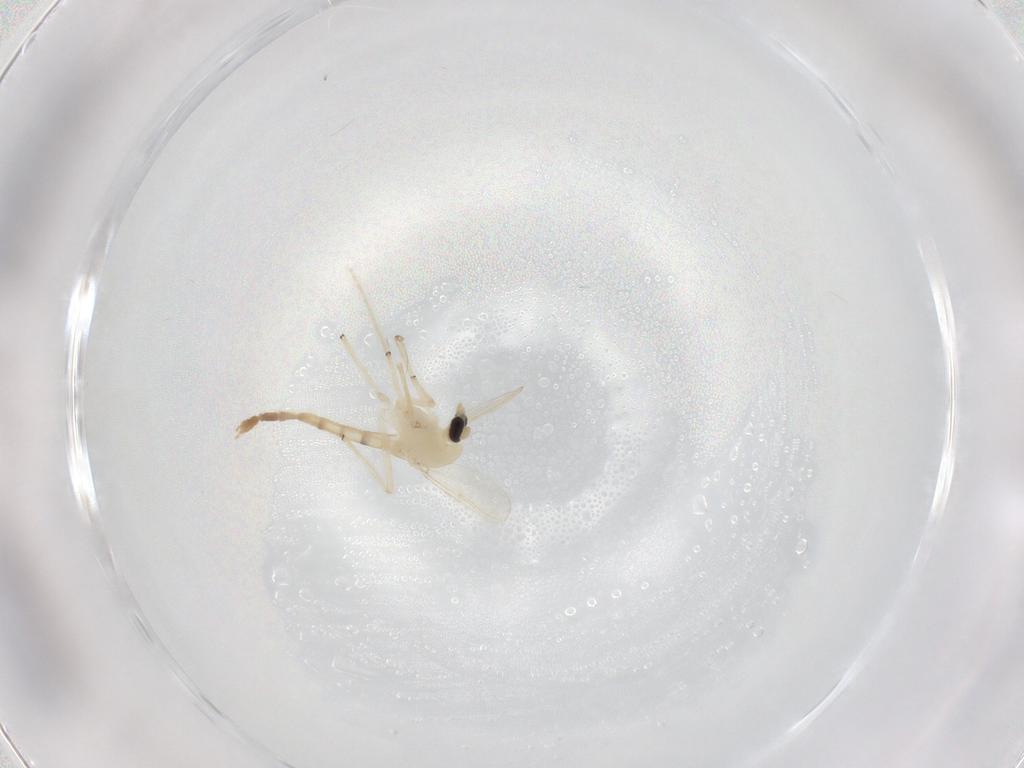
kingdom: Animalia
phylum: Arthropoda
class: Insecta
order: Diptera
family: Chironomidae
